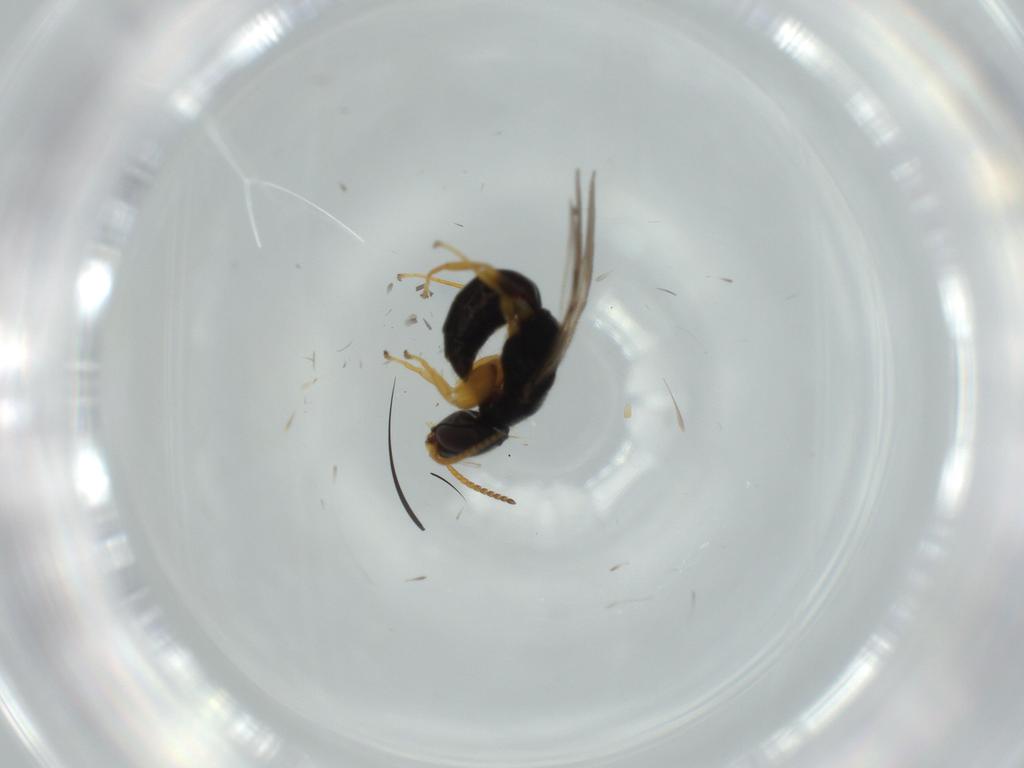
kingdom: Animalia
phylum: Arthropoda
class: Insecta
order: Hymenoptera
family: Bethylidae
